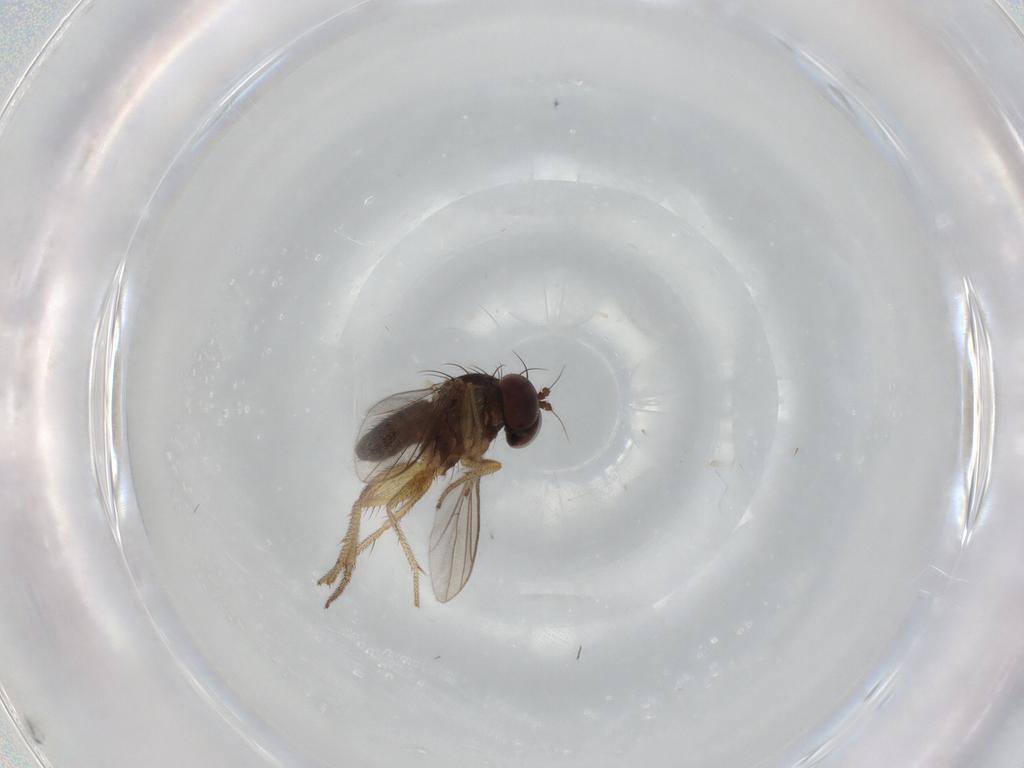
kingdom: Animalia
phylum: Arthropoda
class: Insecta
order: Diptera
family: Dolichopodidae
